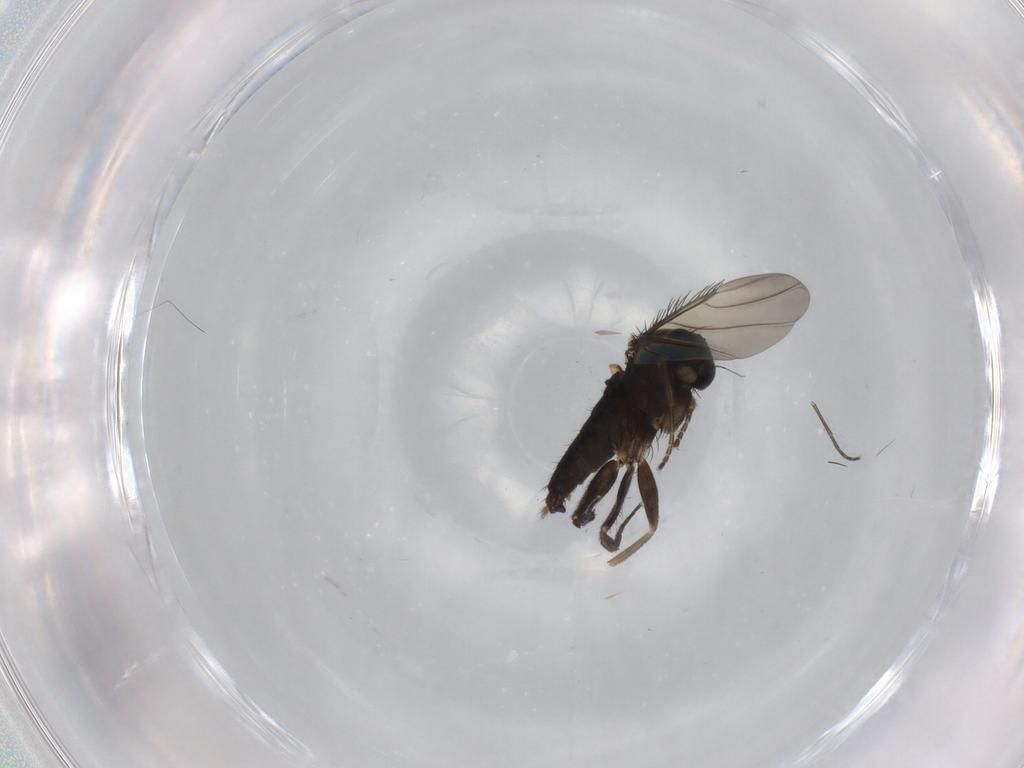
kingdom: Animalia
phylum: Arthropoda
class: Insecta
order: Diptera
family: Phoridae
